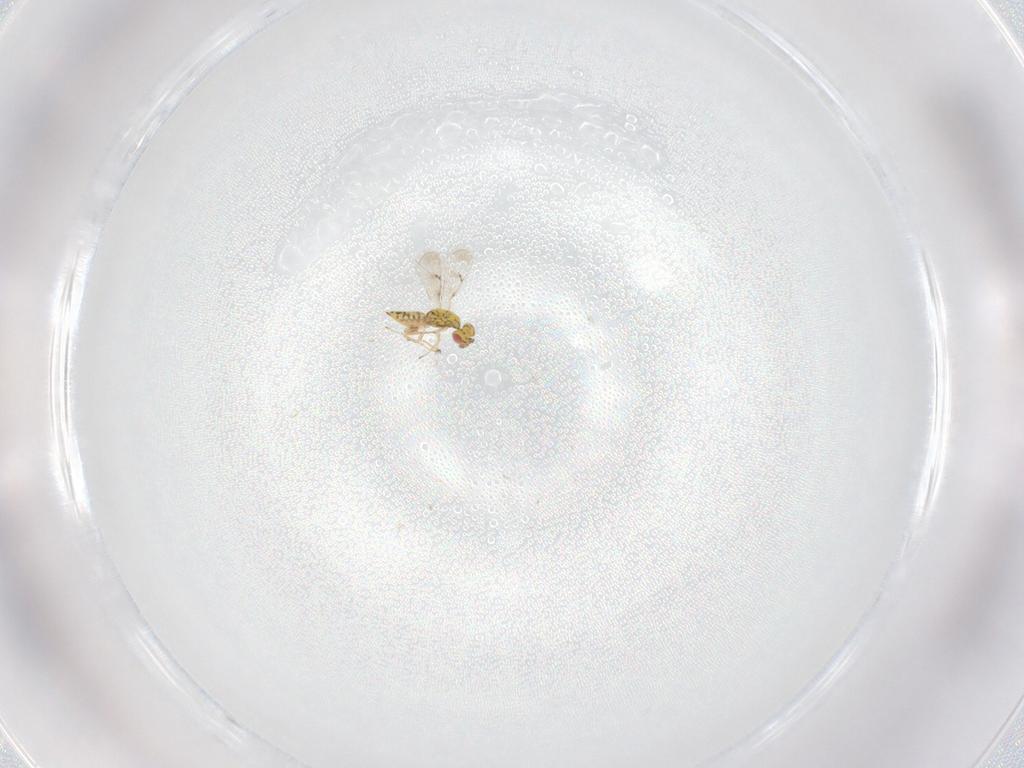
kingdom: Animalia
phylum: Arthropoda
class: Insecta
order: Hymenoptera
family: Eulophidae
